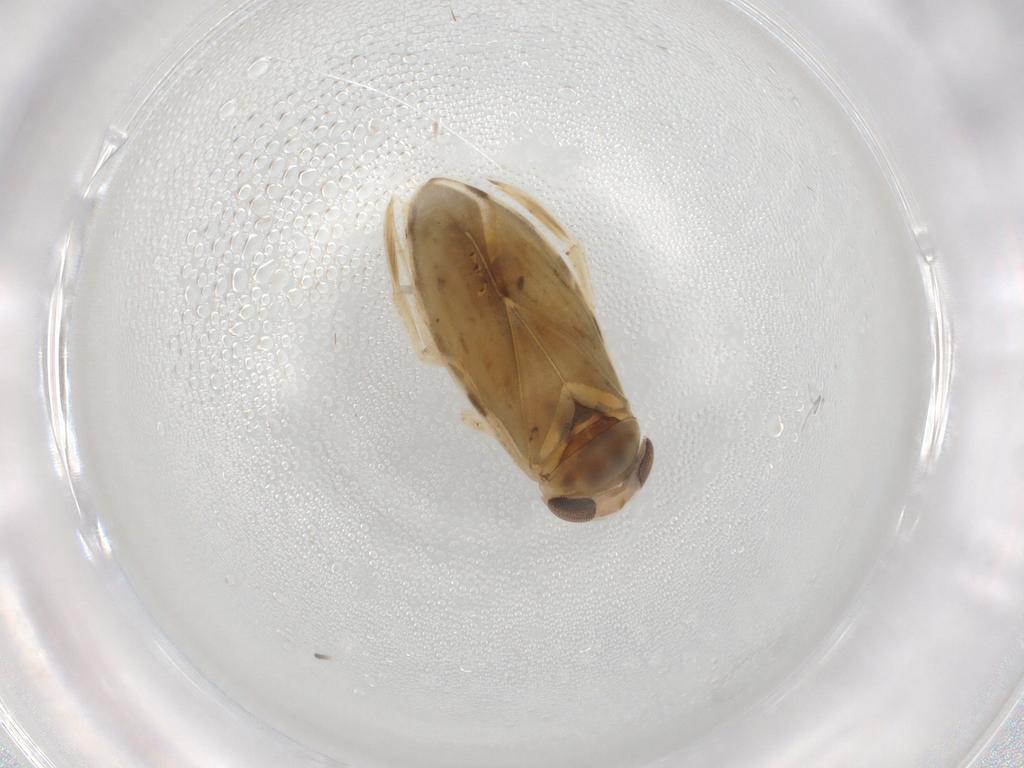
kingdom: Animalia
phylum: Arthropoda
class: Insecta
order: Hemiptera
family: Corixidae
